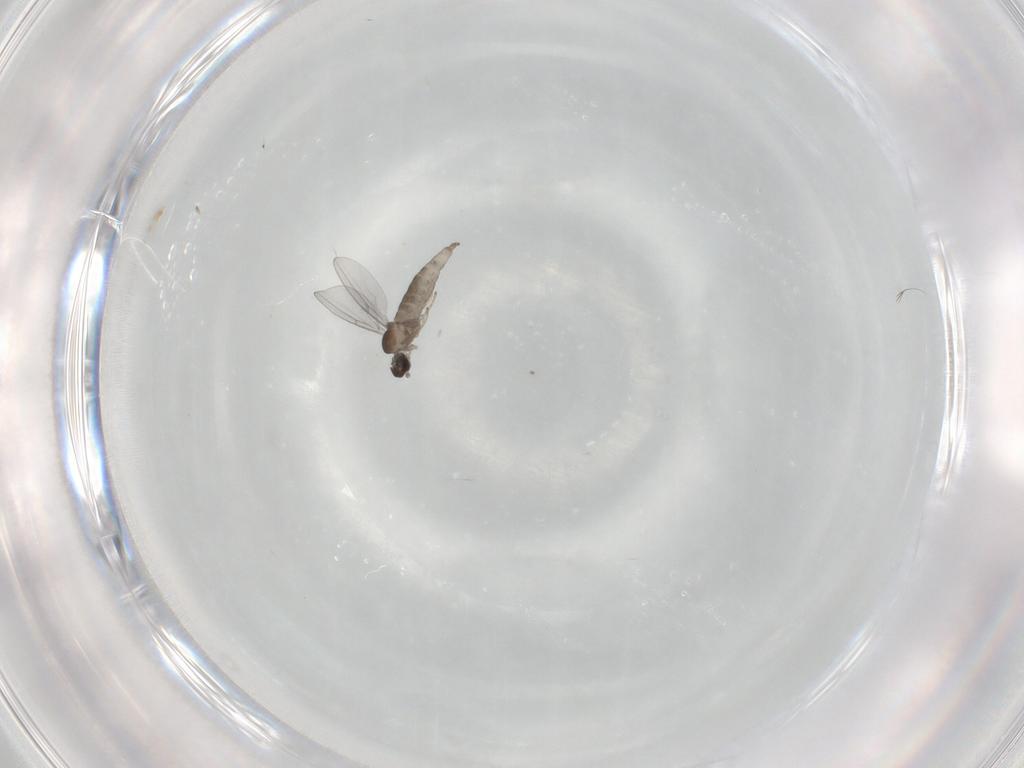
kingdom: Animalia
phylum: Arthropoda
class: Insecta
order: Diptera
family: Cecidomyiidae
